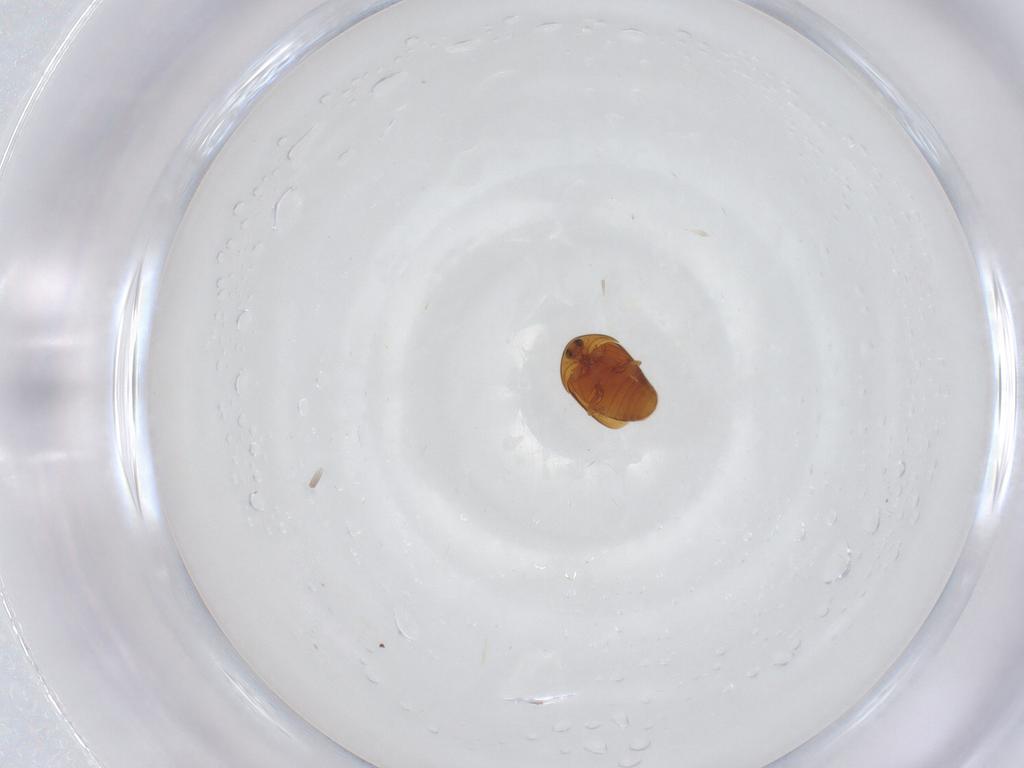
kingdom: Animalia
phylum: Arthropoda
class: Insecta
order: Coleoptera
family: Corylophidae
